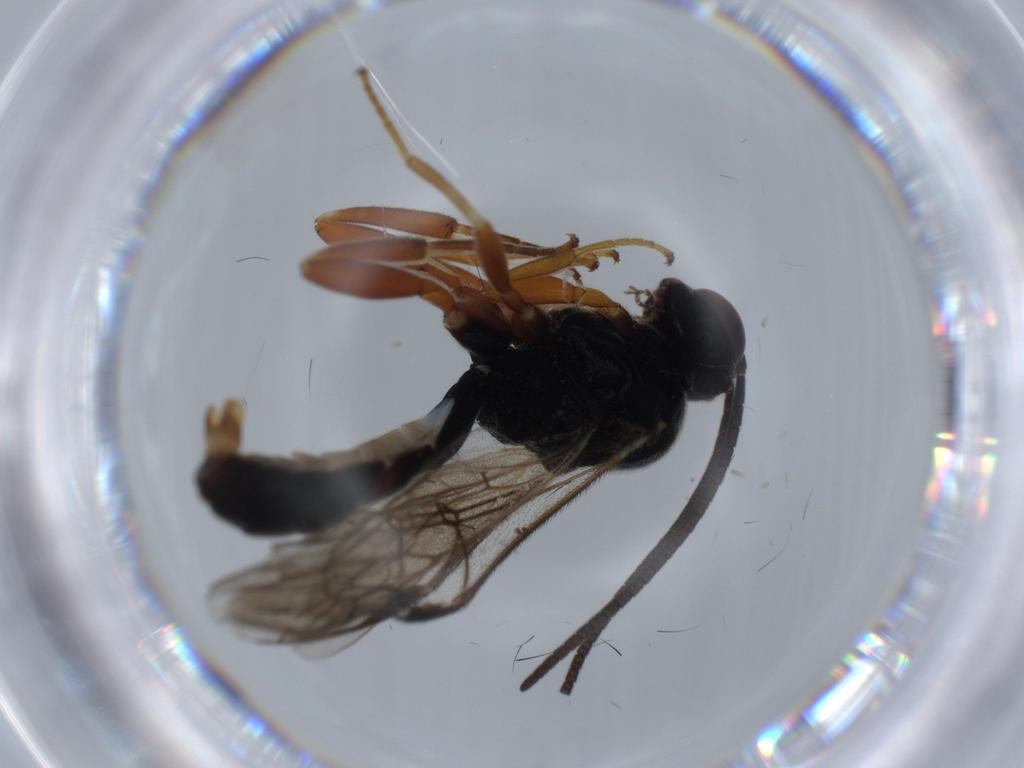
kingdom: Animalia
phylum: Arthropoda
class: Insecta
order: Hymenoptera
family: Ichneumonidae
